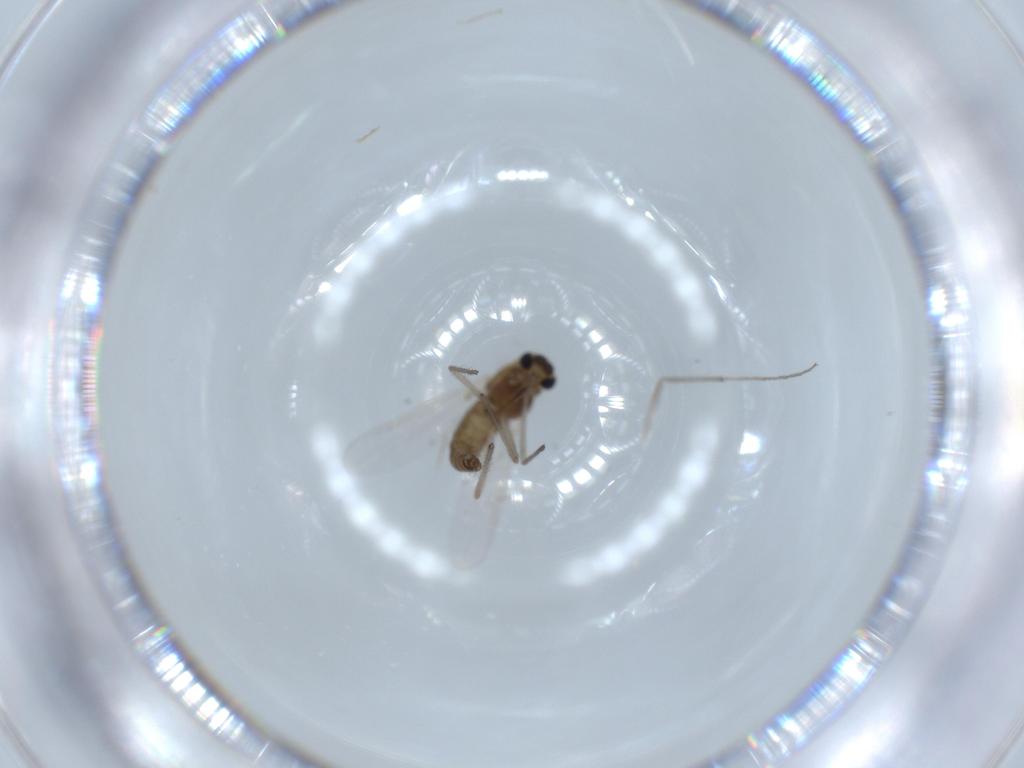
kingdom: Animalia
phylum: Arthropoda
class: Insecta
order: Diptera
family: Chironomidae
